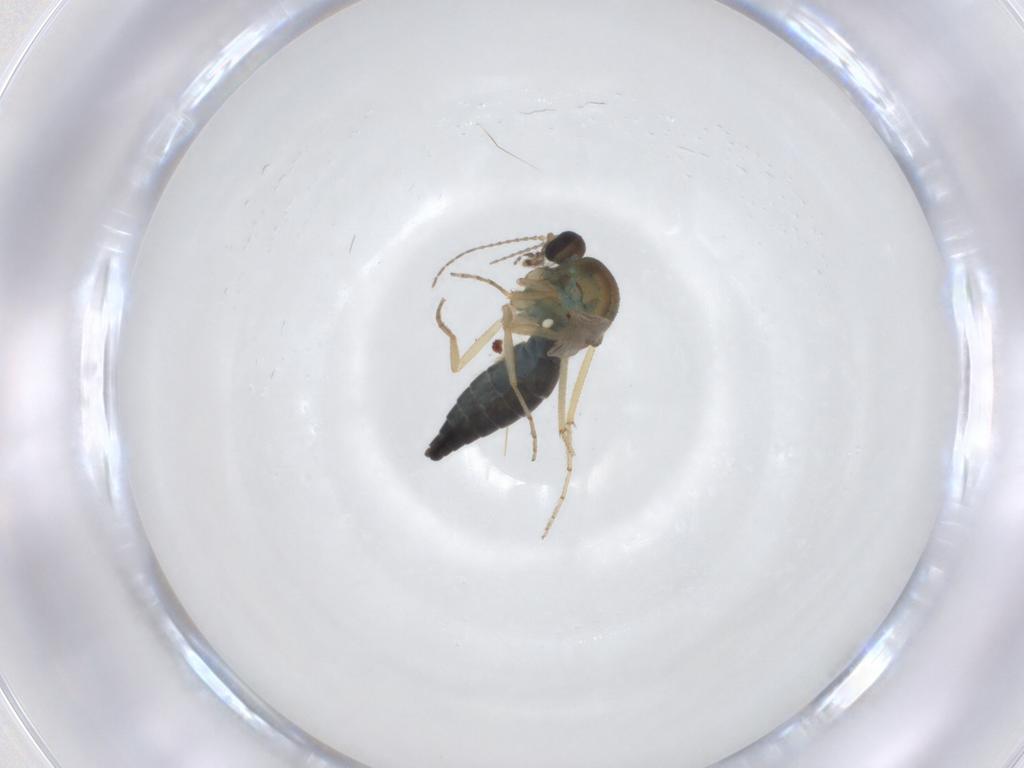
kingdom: Animalia
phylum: Arthropoda
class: Insecta
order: Diptera
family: Ceratopogonidae
